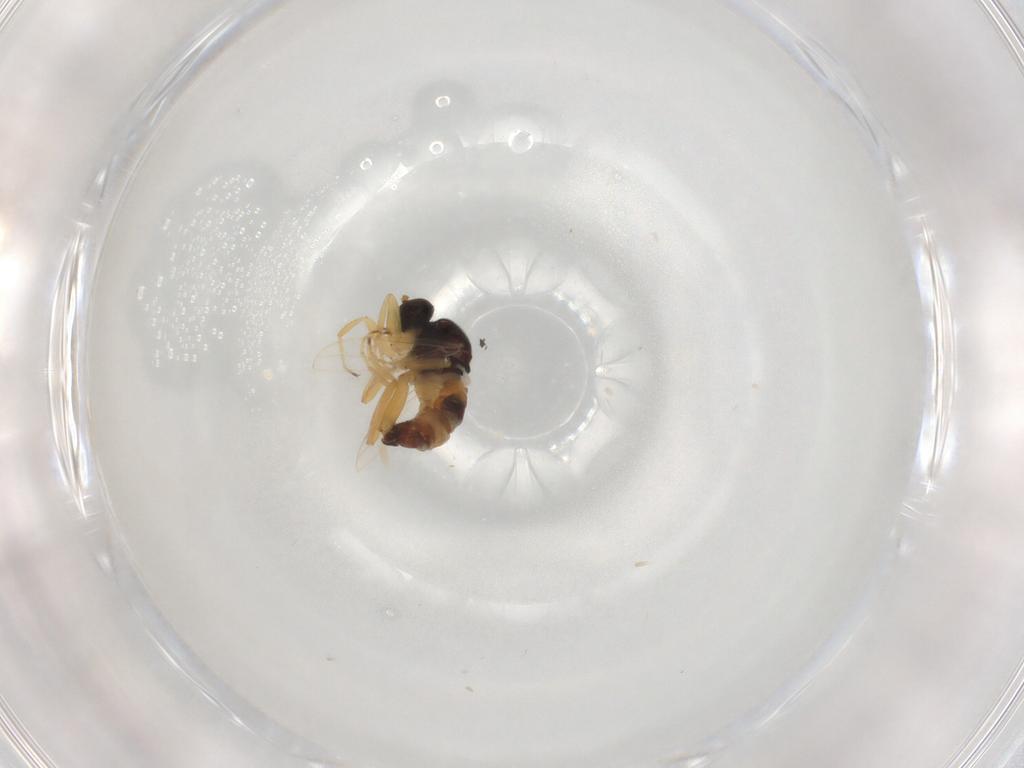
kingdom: Animalia
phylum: Arthropoda
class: Insecta
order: Diptera
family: Hybotidae
